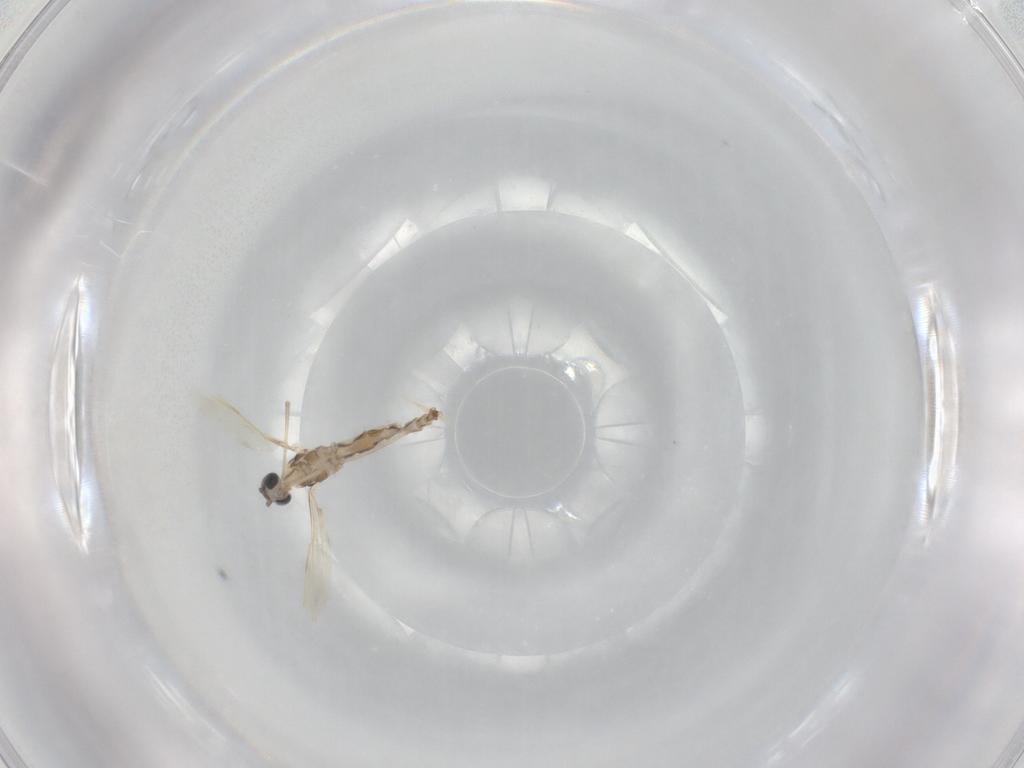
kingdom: Animalia
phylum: Arthropoda
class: Insecta
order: Diptera
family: Cecidomyiidae
